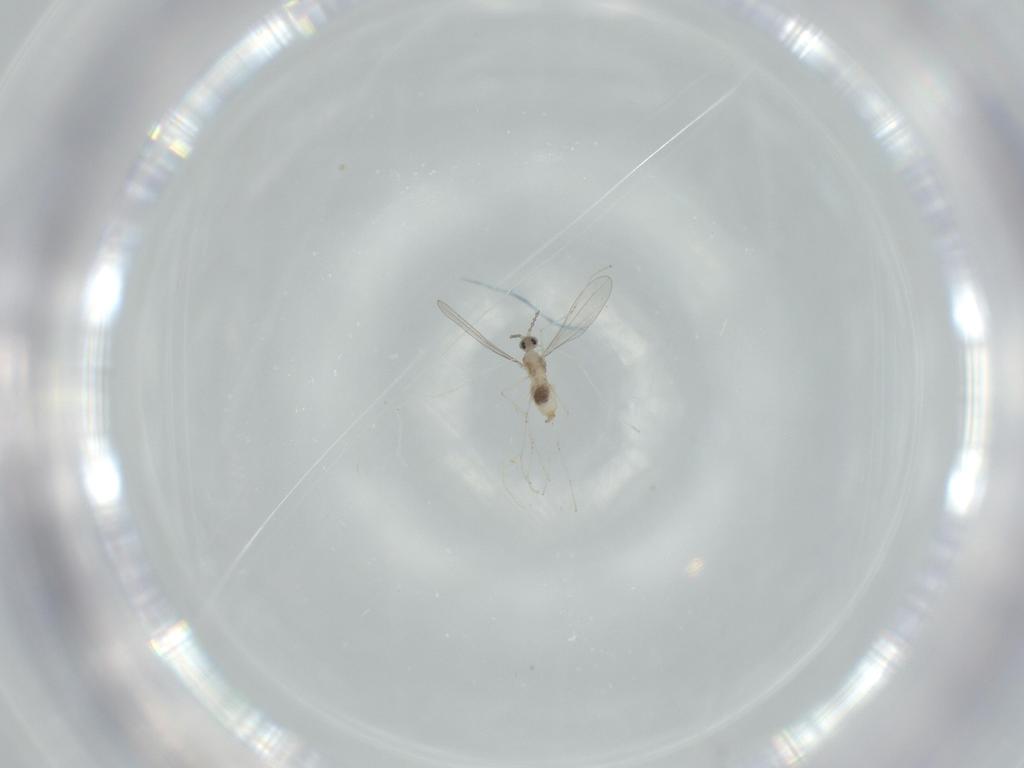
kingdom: Animalia
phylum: Arthropoda
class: Insecta
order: Diptera
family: Cecidomyiidae
